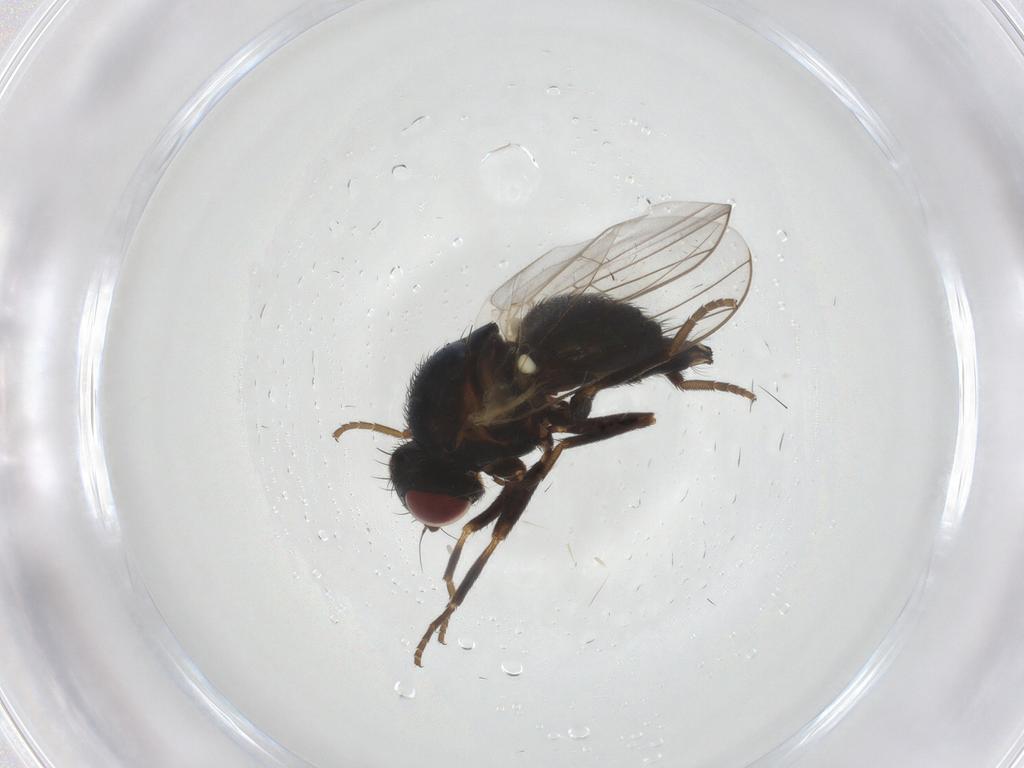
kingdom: Animalia
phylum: Arthropoda
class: Insecta
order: Diptera
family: Agromyzidae
